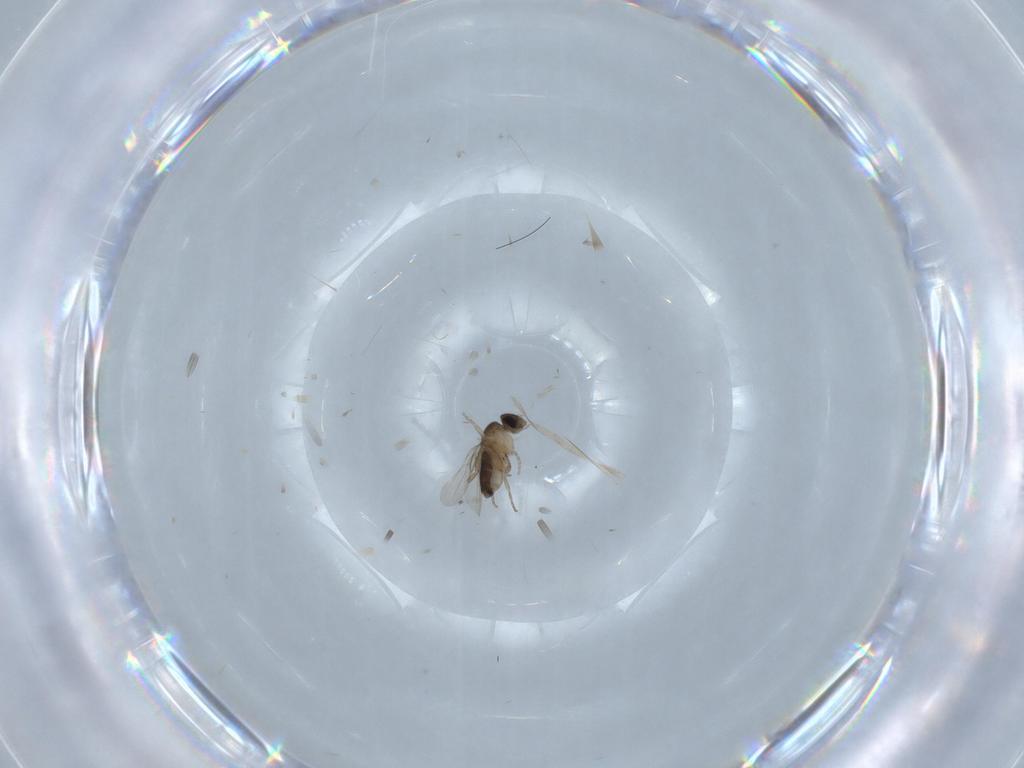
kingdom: Animalia
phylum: Arthropoda
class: Insecta
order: Diptera
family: Phoridae
